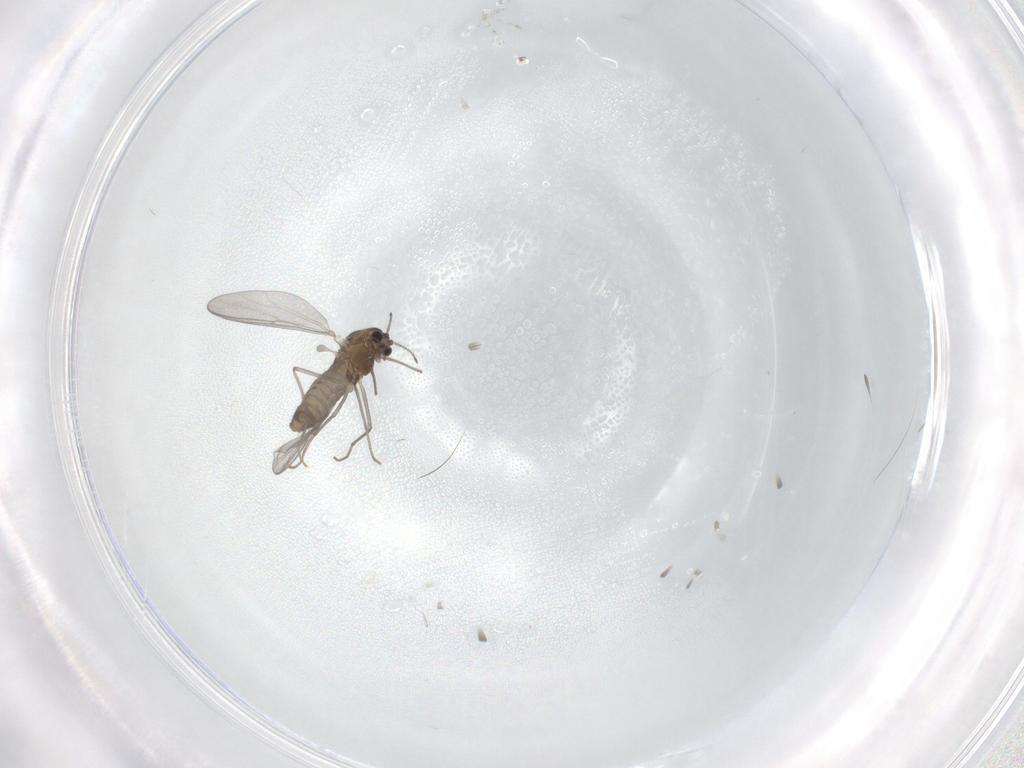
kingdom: Animalia
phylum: Arthropoda
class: Insecta
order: Diptera
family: Chironomidae
